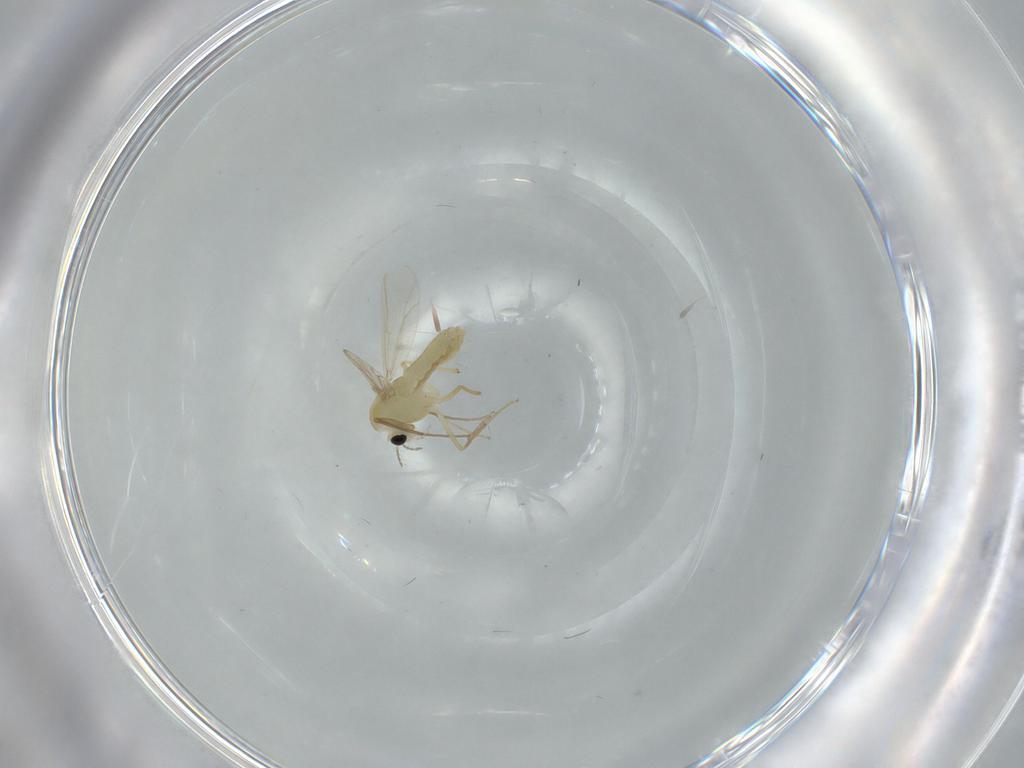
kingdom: Animalia
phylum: Arthropoda
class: Insecta
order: Diptera
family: Chironomidae
